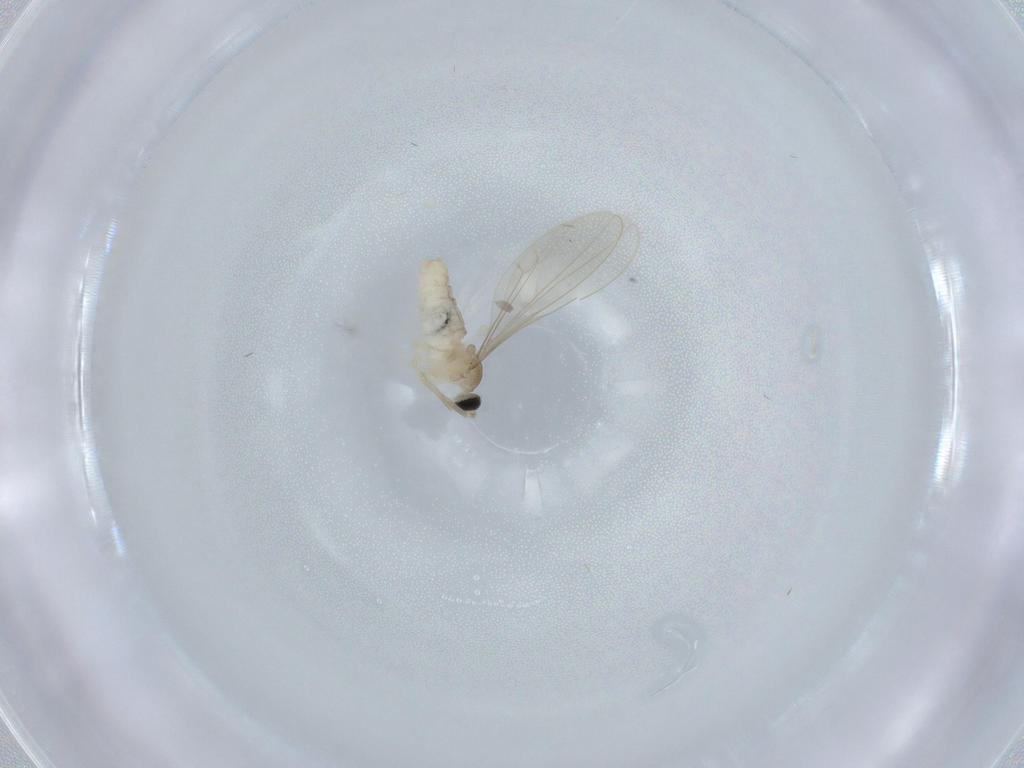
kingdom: Animalia
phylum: Arthropoda
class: Insecta
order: Diptera
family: Cecidomyiidae
